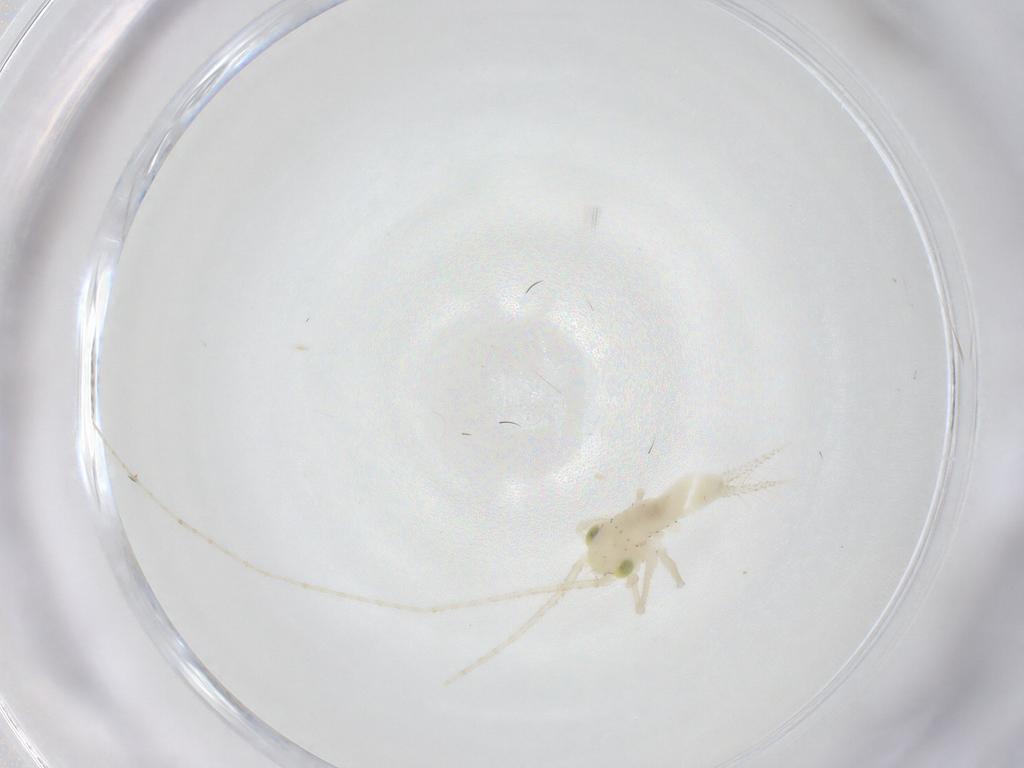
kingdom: Animalia
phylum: Arthropoda
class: Insecta
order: Orthoptera
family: Trigonidiidae
